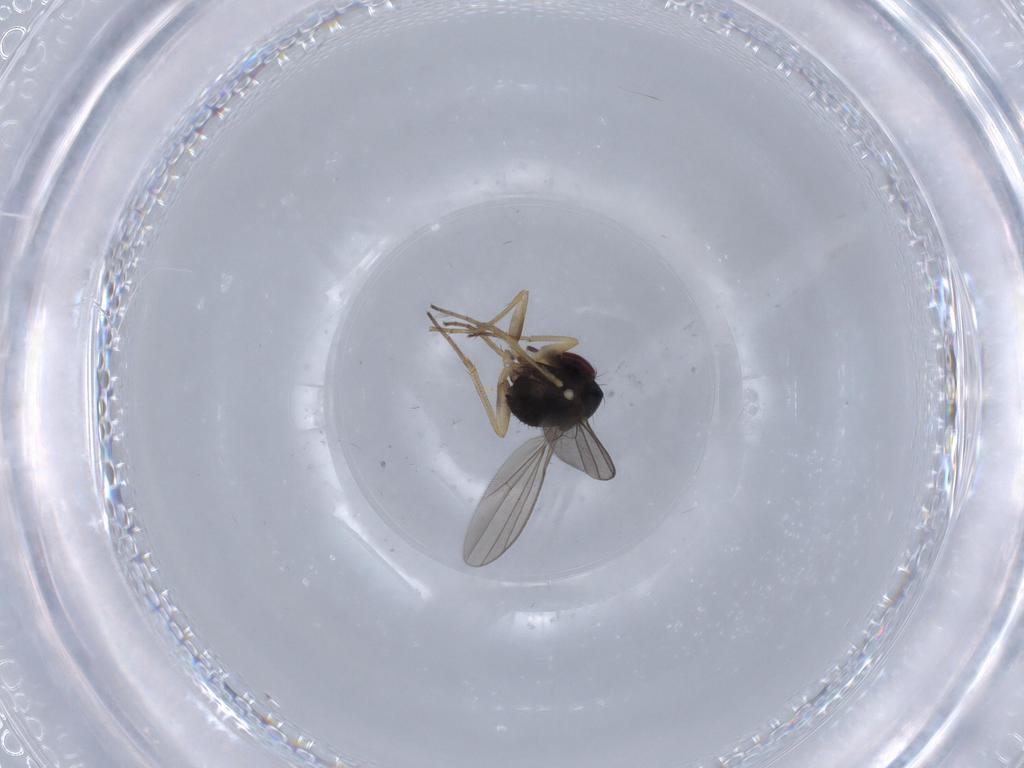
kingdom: Animalia
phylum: Arthropoda
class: Insecta
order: Diptera
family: Dolichopodidae
